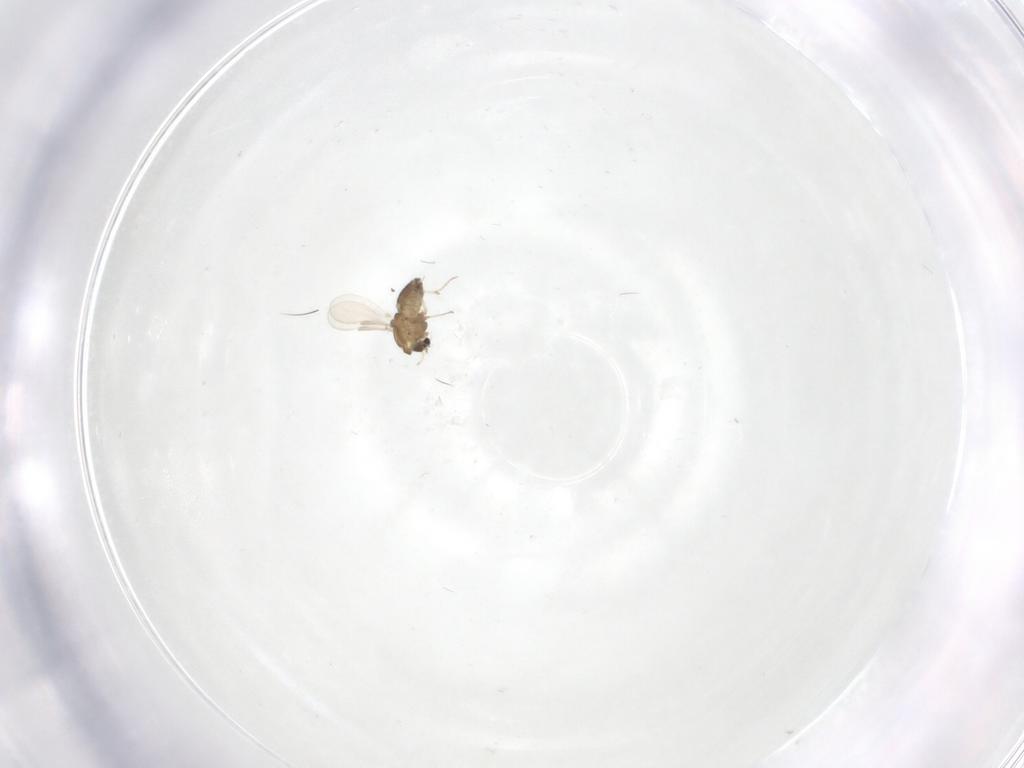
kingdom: Animalia
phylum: Arthropoda
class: Insecta
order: Diptera
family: Chironomidae
